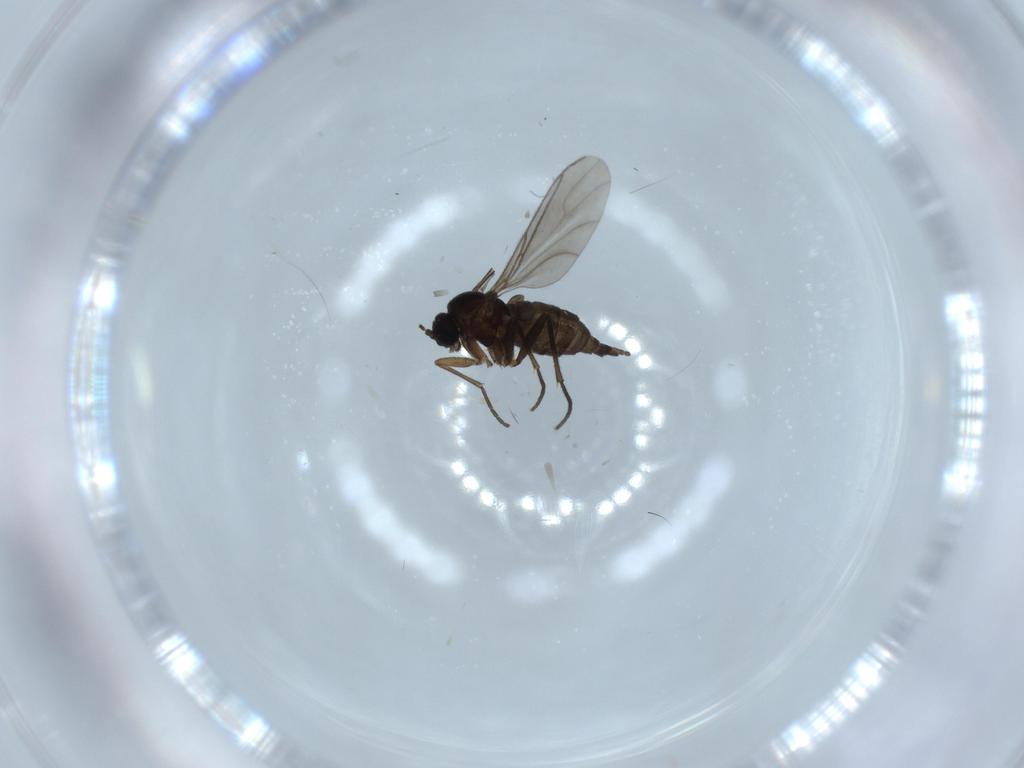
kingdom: Animalia
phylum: Arthropoda
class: Insecta
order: Diptera
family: Sciaridae
